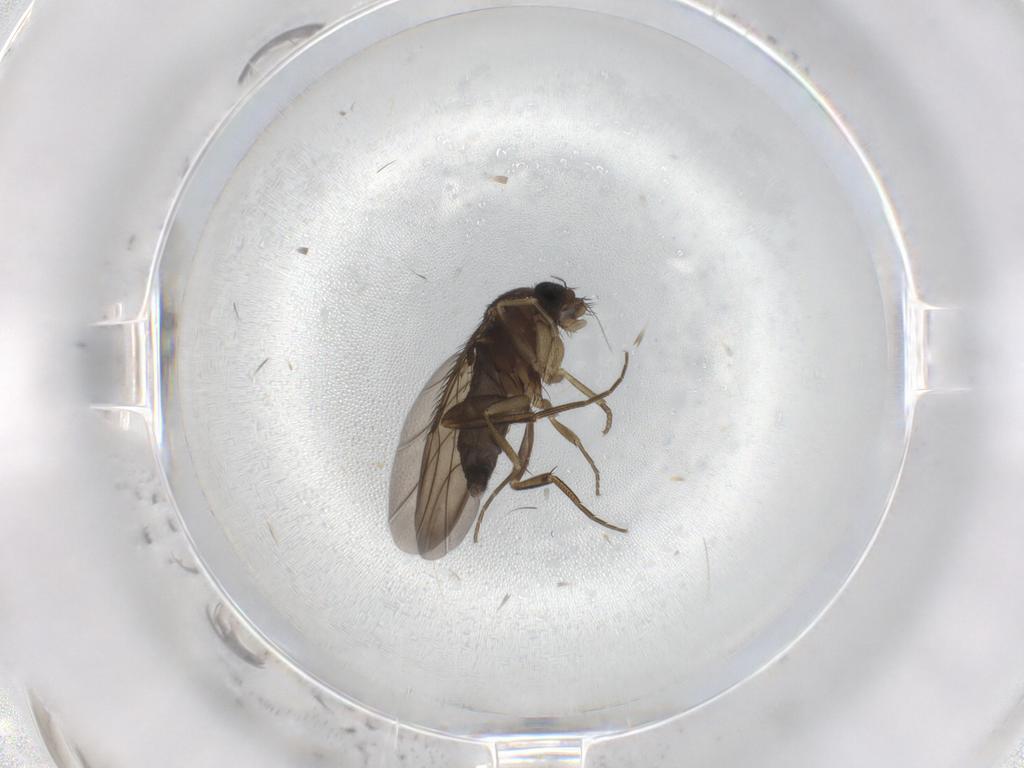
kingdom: Animalia
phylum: Arthropoda
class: Insecta
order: Diptera
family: Phoridae
